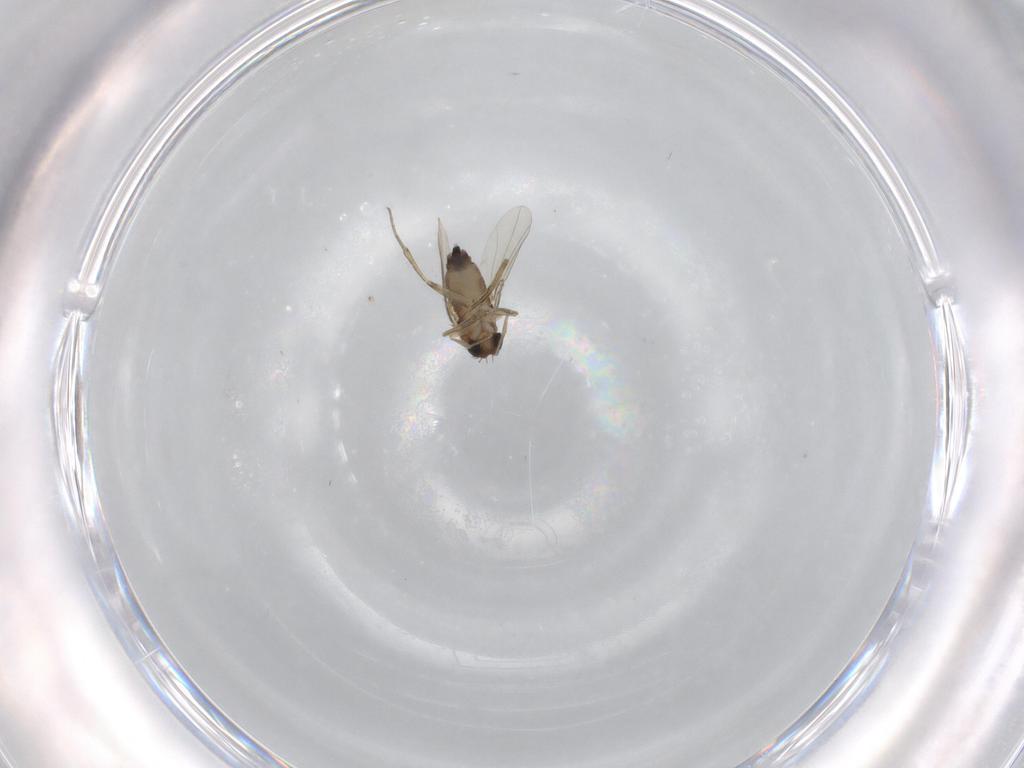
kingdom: Animalia
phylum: Arthropoda
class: Insecta
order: Diptera
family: Phoridae
